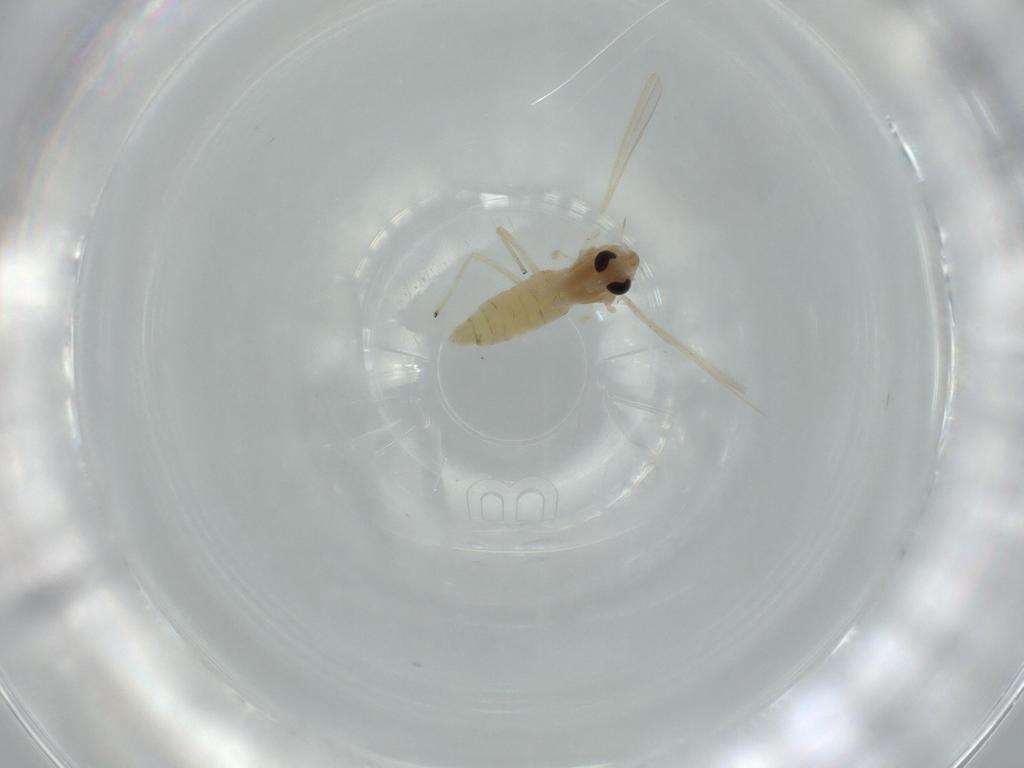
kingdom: Animalia
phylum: Arthropoda
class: Insecta
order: Diptera
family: Chironomidae
